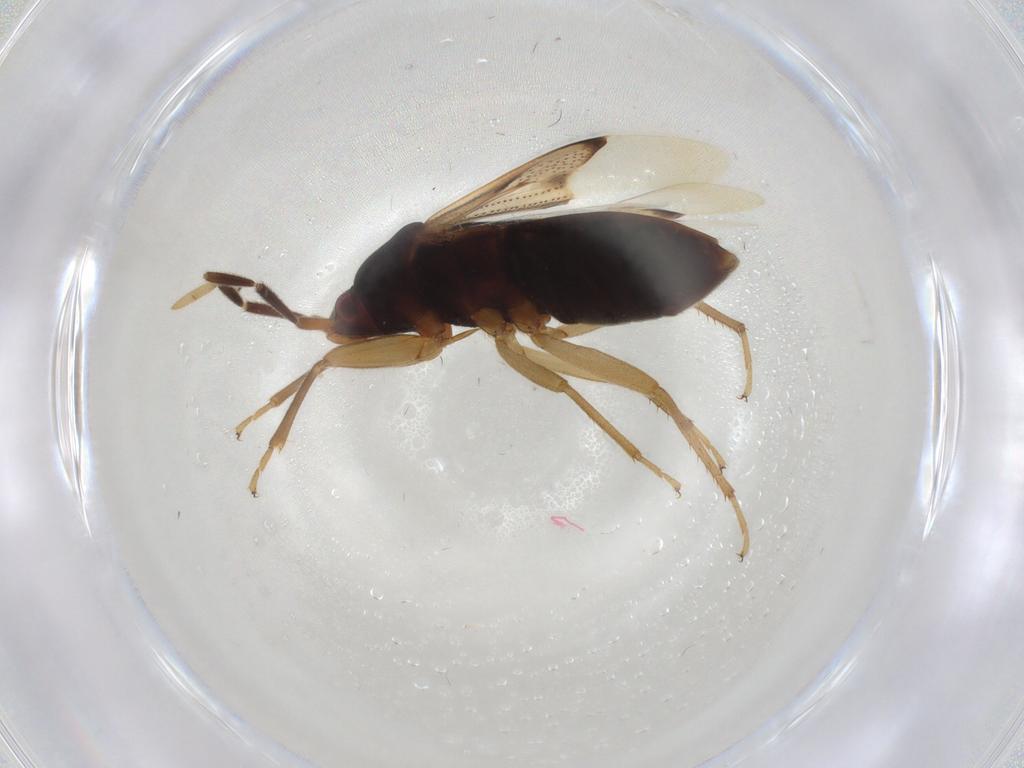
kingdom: Animalia
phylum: Arthropoda
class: Insecta
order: Hemiptera
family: Rhyparochromidae
